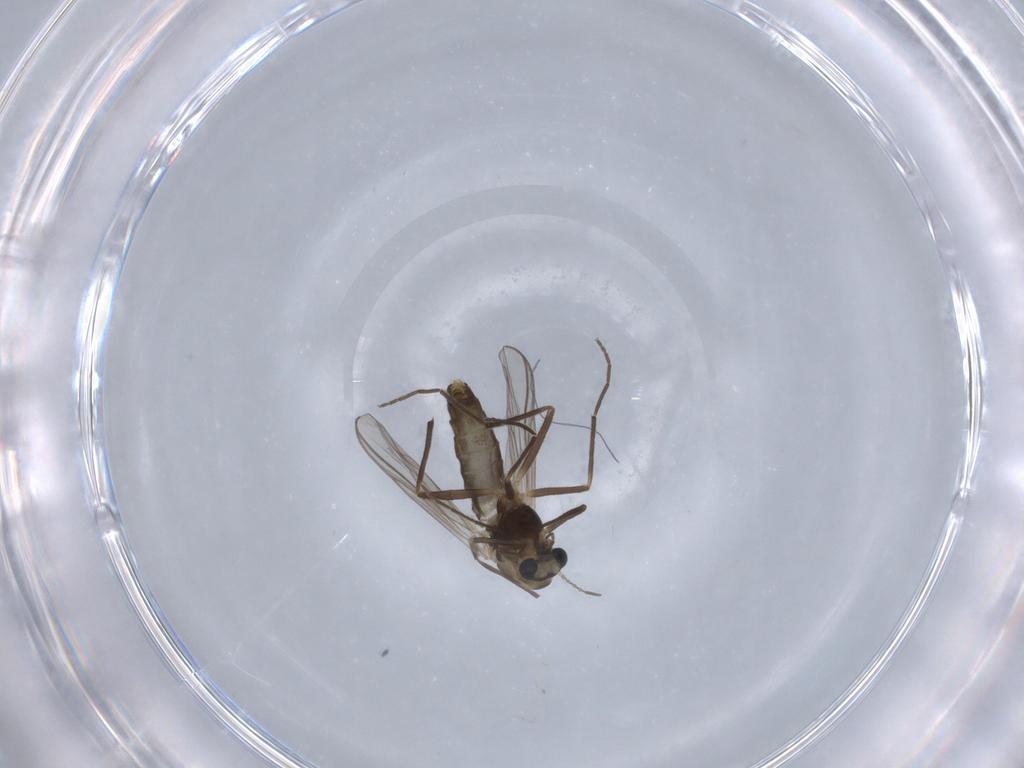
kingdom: Animalia
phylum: Arthropoda
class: Insecta
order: Diptera
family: Chironomidae
